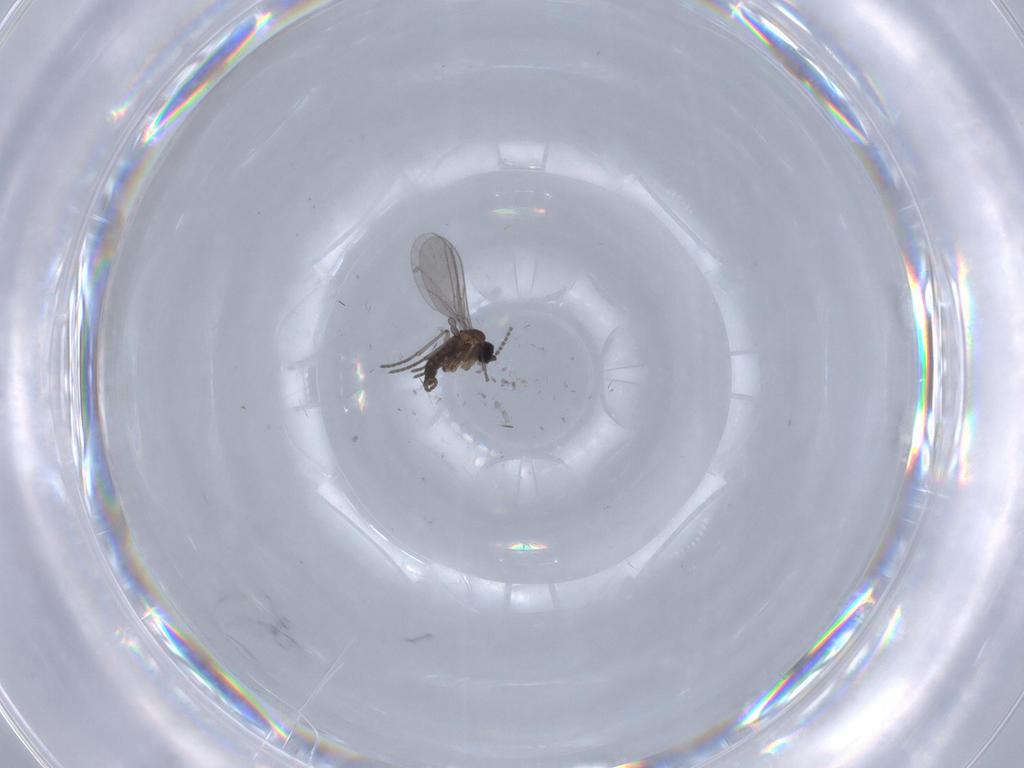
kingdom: Animalia
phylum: Arthropoda
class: Insecta
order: Diptera
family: Sciaridae
